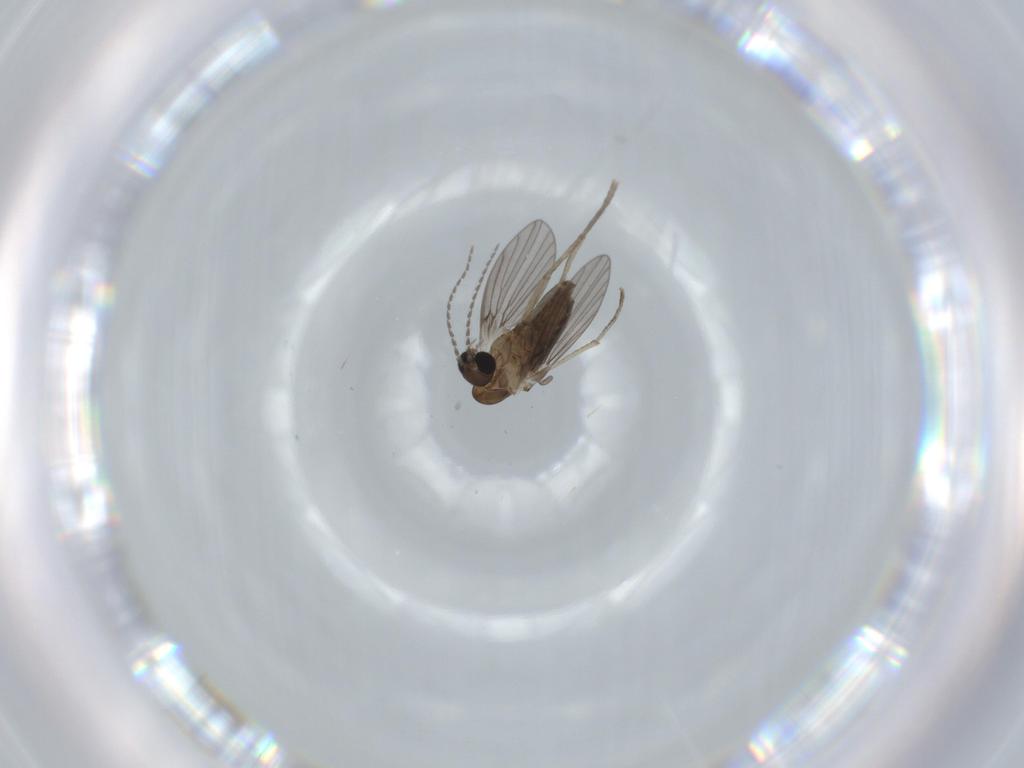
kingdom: Animalia
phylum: Arthropoda
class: Insecta
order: Diptera
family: Psychodidae
